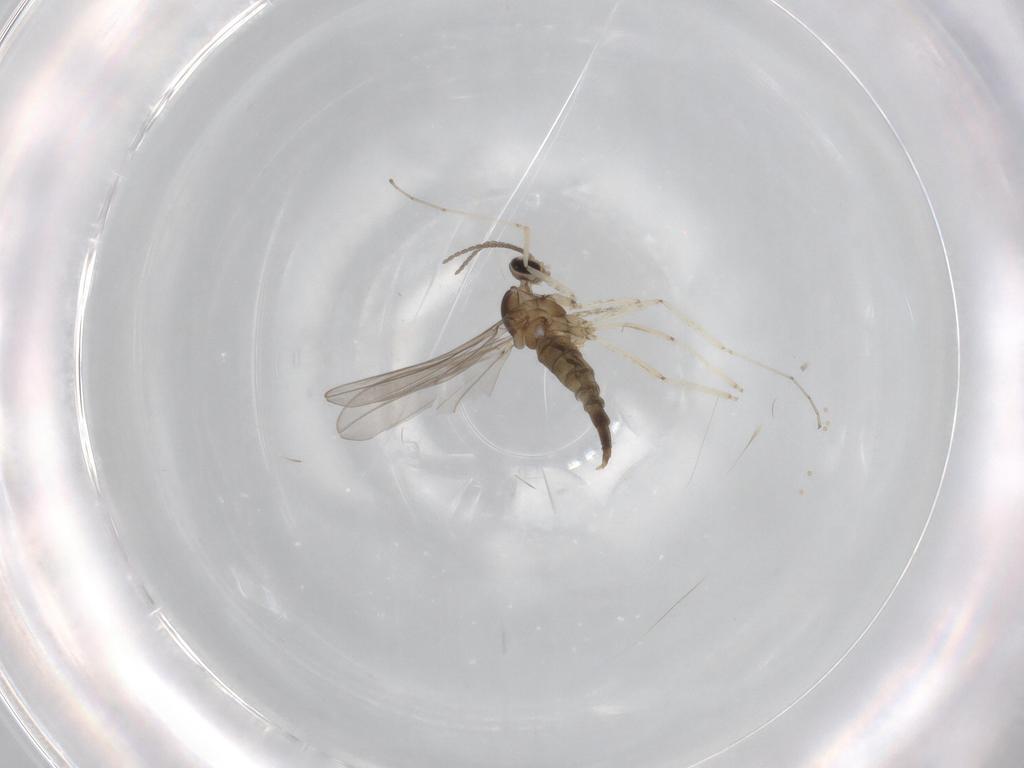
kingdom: Animalia
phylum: Arthropoda
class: Insecta
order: Diptera
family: Cecidomyiidae
